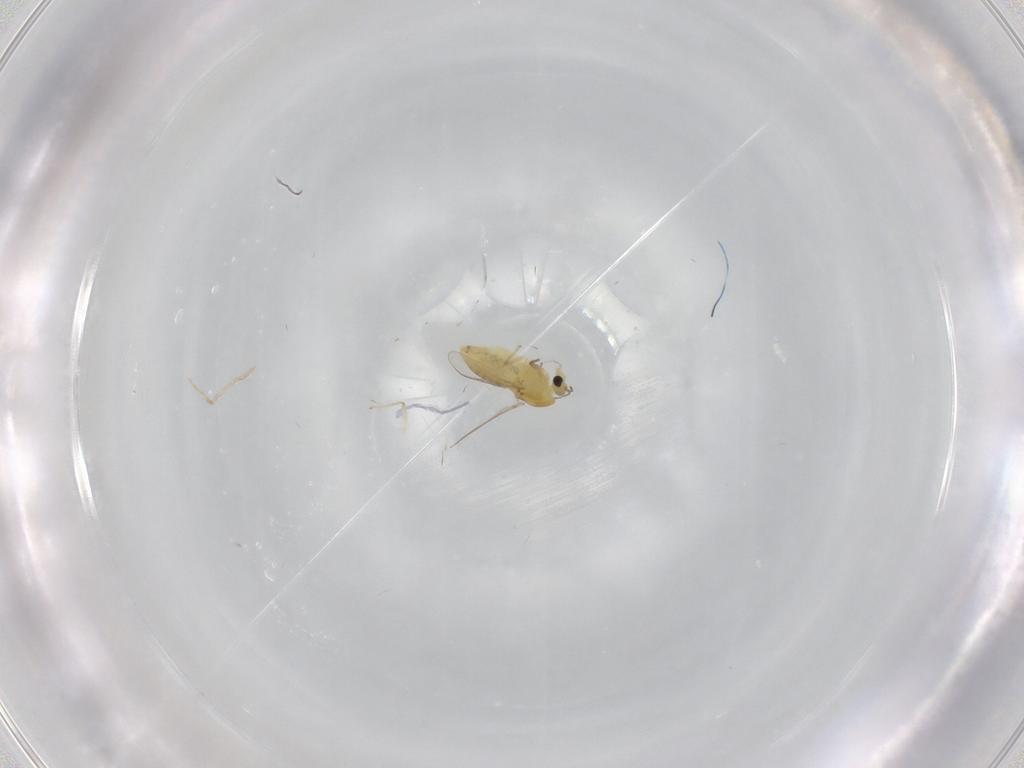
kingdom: Animalia
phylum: Arthropoda
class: Insecta
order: Diptera
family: Chironomidae
